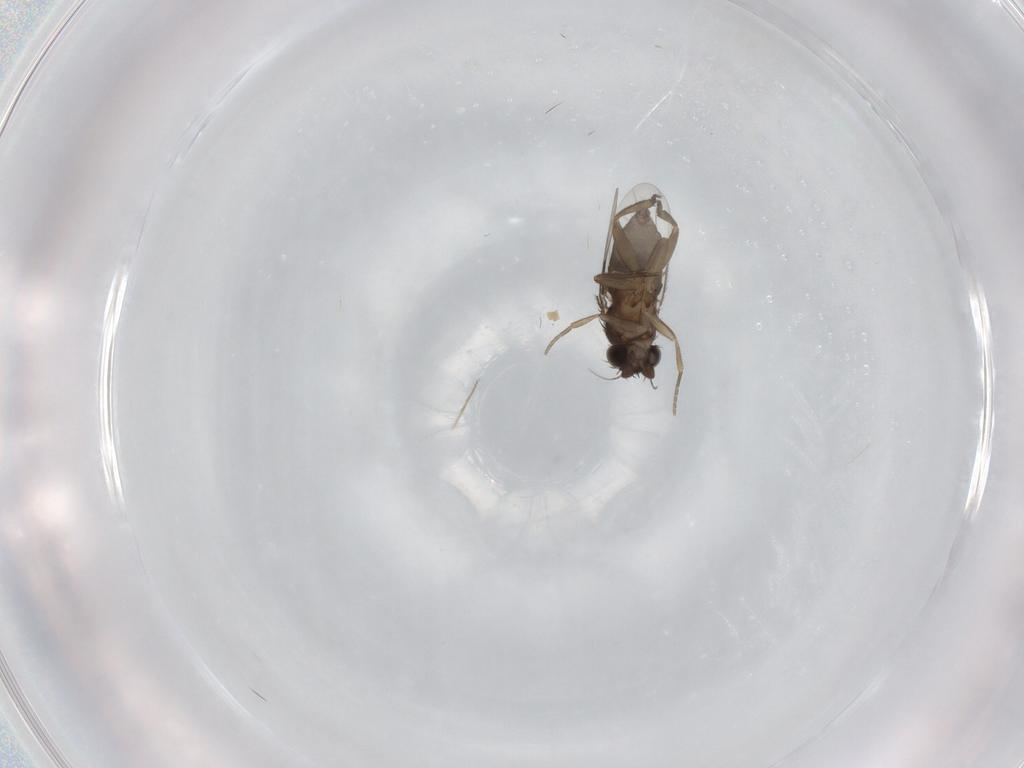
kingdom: Animalia
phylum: Arthropoda
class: Insecta
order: Diptera
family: Phoridae
